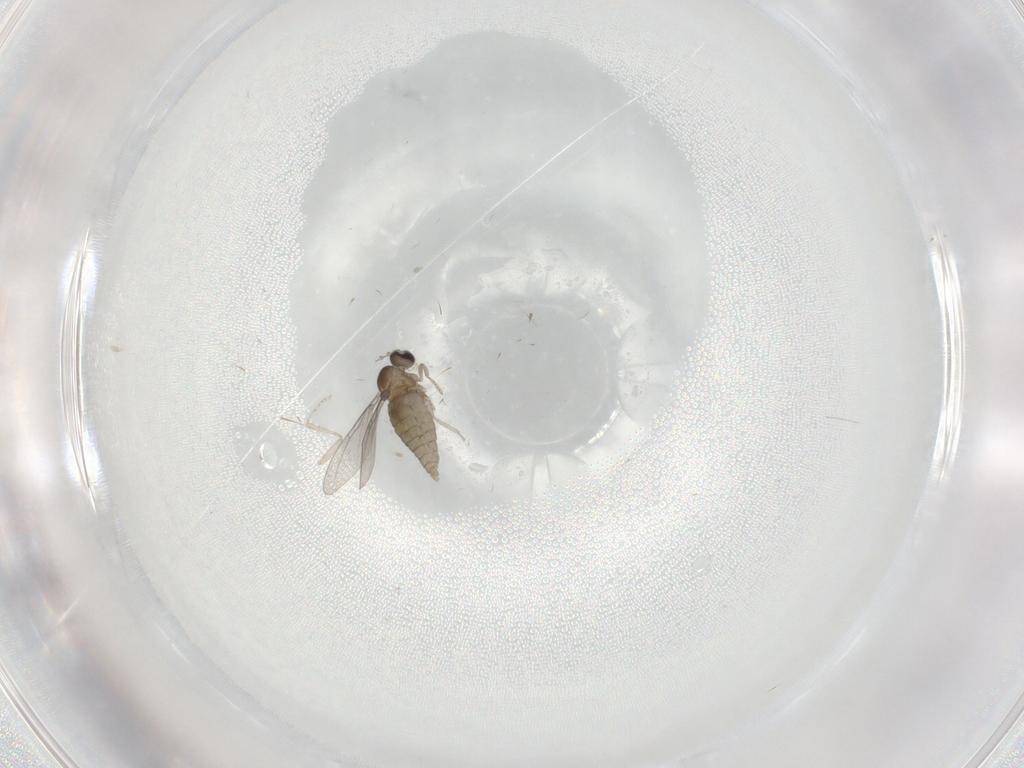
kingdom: Animalia
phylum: Arthropoda
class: Insecta
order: Diptera
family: Cecidomyiidae
